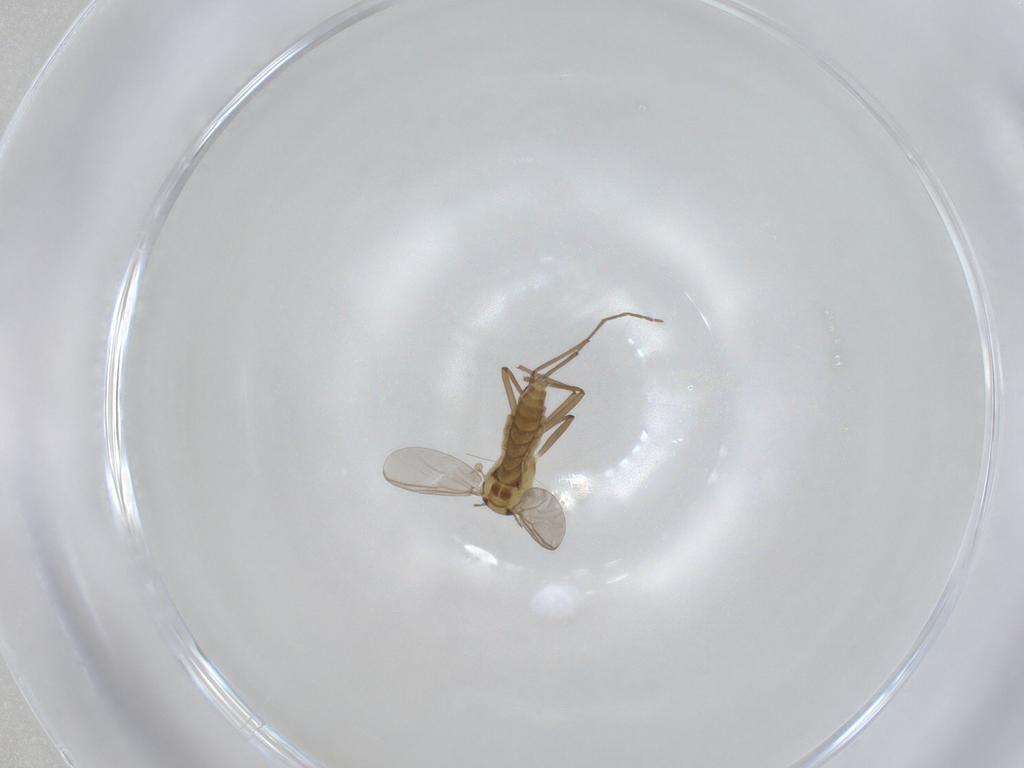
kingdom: Animalia
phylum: Arthropoda
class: Insecta
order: Diptera
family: Chironomidae
